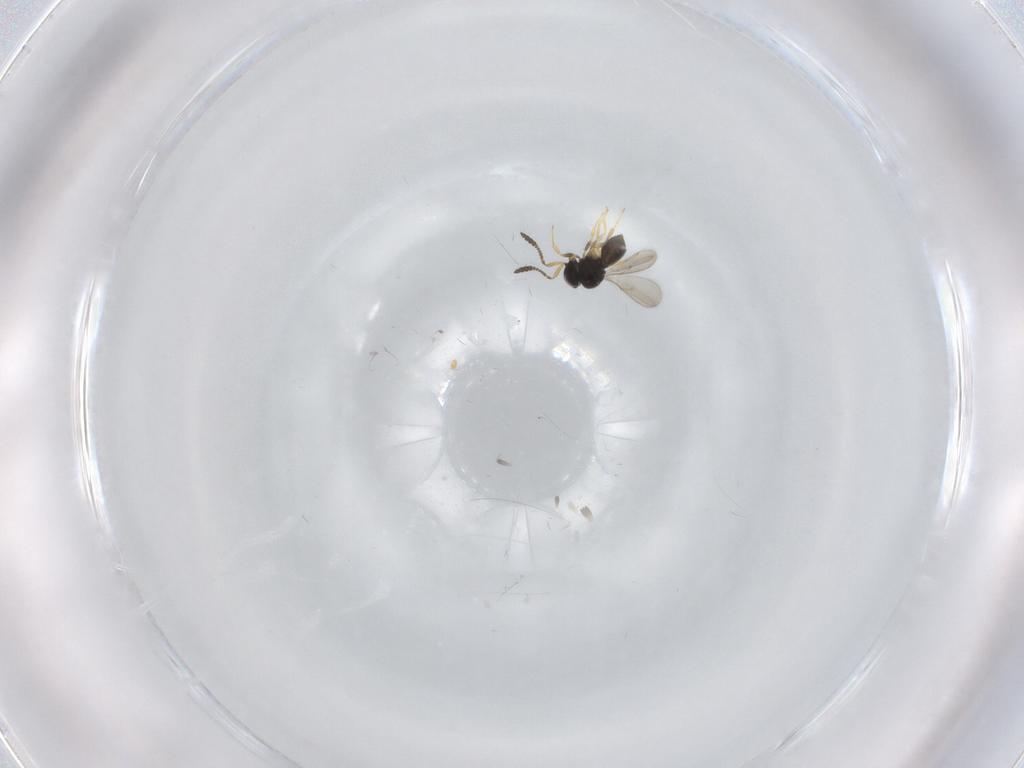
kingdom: Animalia
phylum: Arthropoda
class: Insecta
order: Hymenoptera
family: Scelionidae
